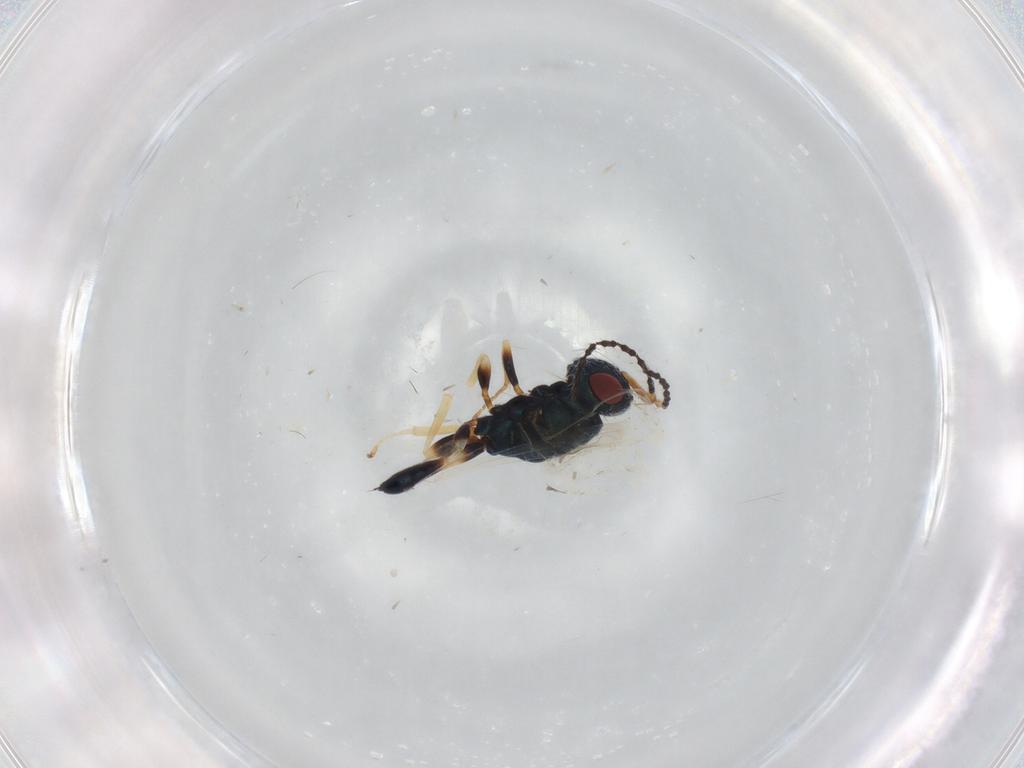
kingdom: Animalia
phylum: Arthropoda
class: Insecta
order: Hymenoptera
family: Formicidae
